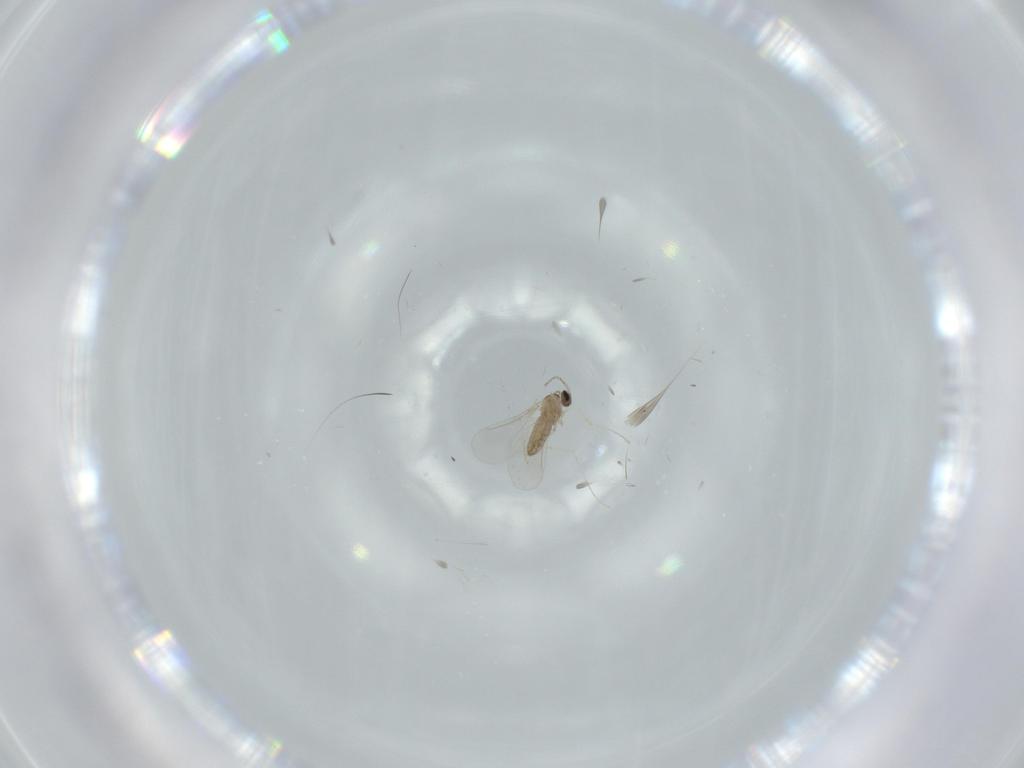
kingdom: Animalia
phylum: Arthropoda
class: Insecta
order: Diptera
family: Cecidomyiidae
